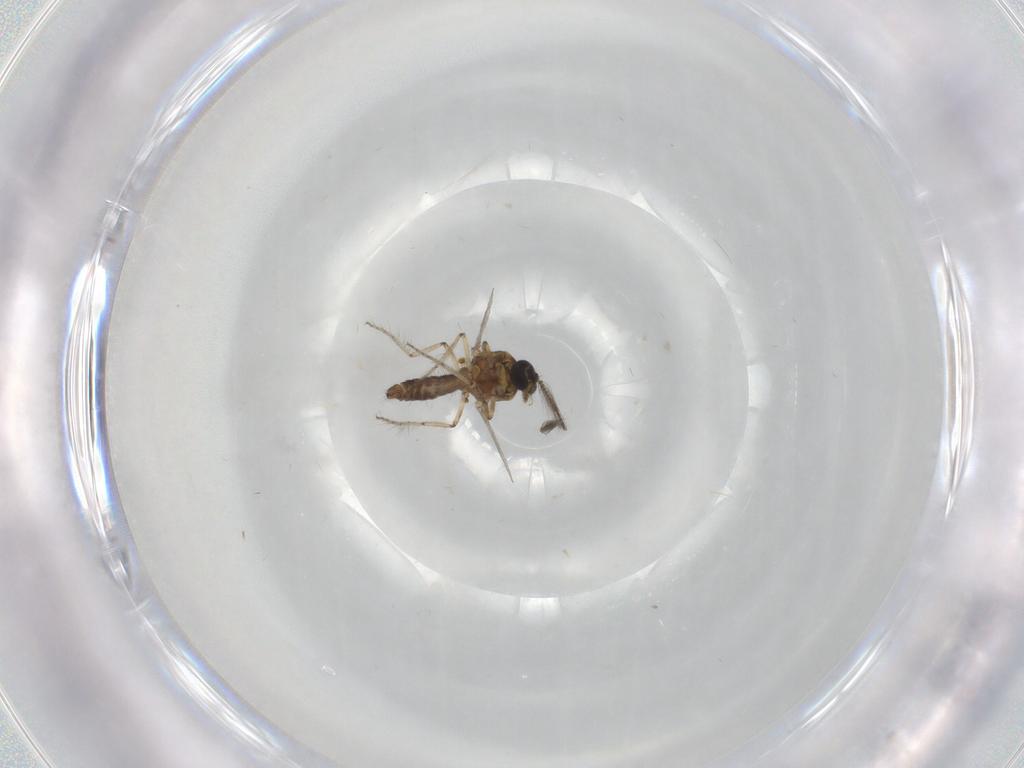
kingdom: Animalia
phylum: Arthropoda
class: Insecta
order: Diptera
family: Ceratopogonidae
